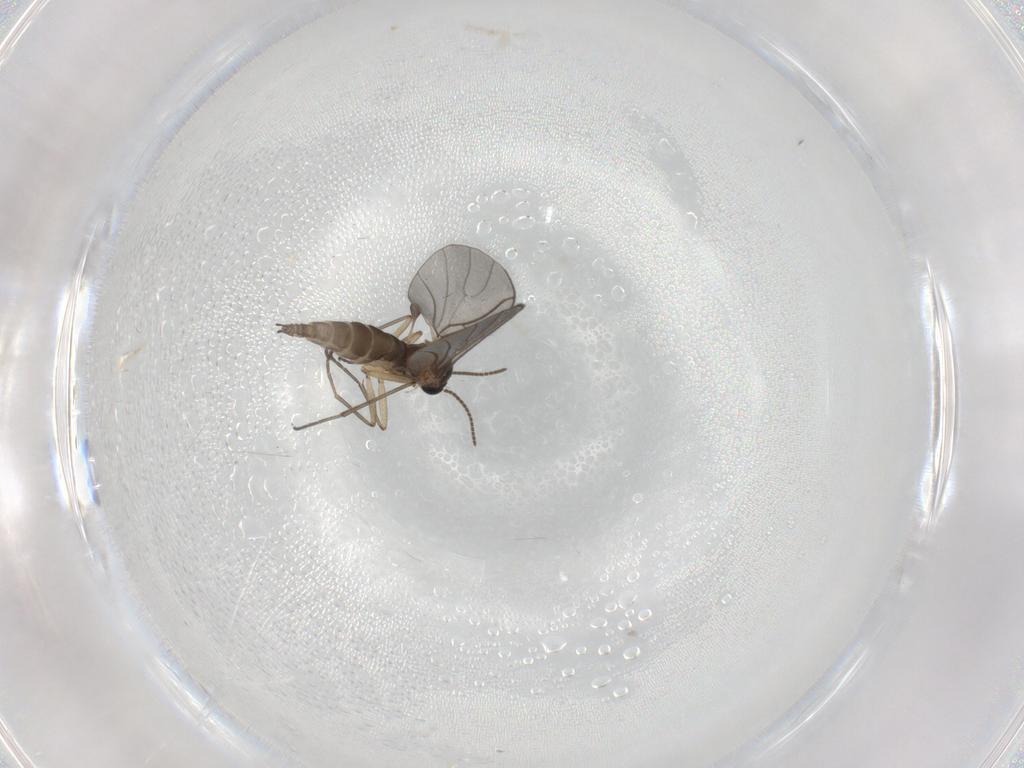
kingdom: Animalia
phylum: Arthropoda
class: Insecta
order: Diptera
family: Sciaridae
